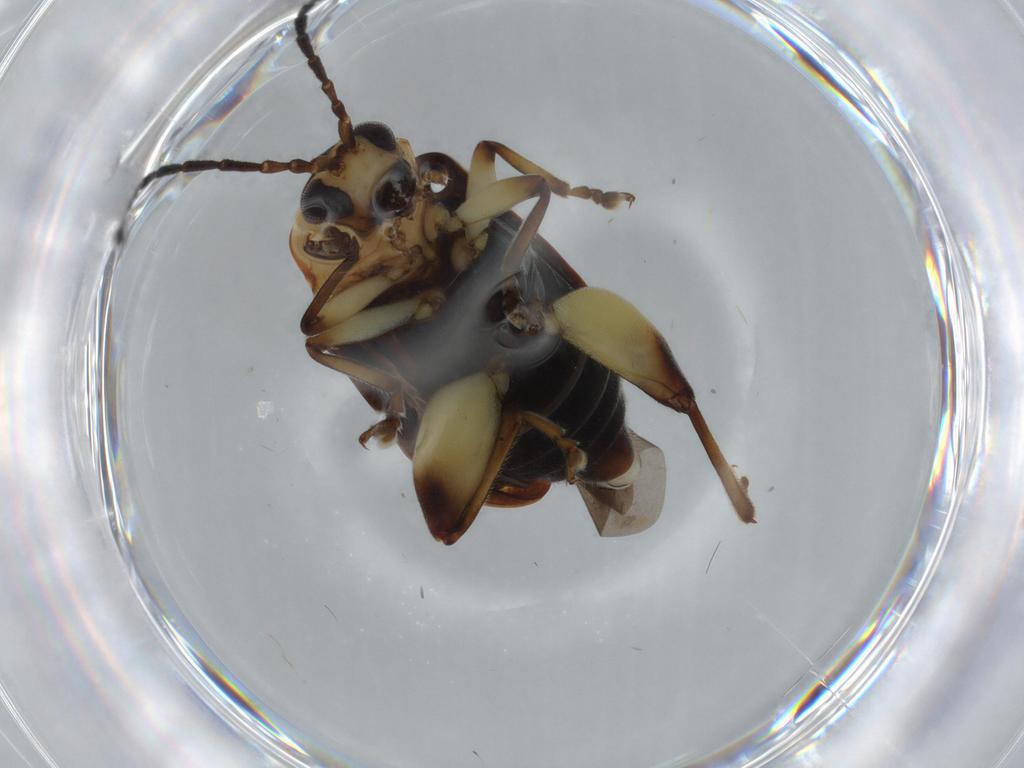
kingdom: Animalia
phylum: Arthropoda
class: Insecta
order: Coleoptera
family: Chrysomelidae
